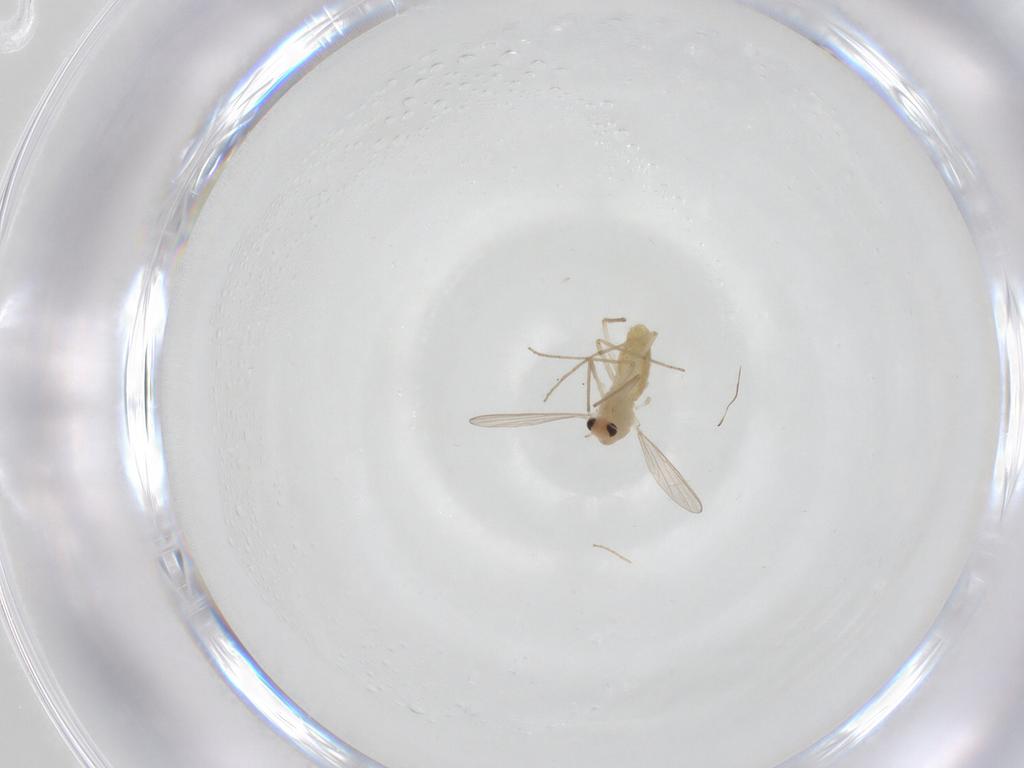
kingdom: Animalia
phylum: Arthropoda
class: Insecta
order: Diptera
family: Chironomidae
